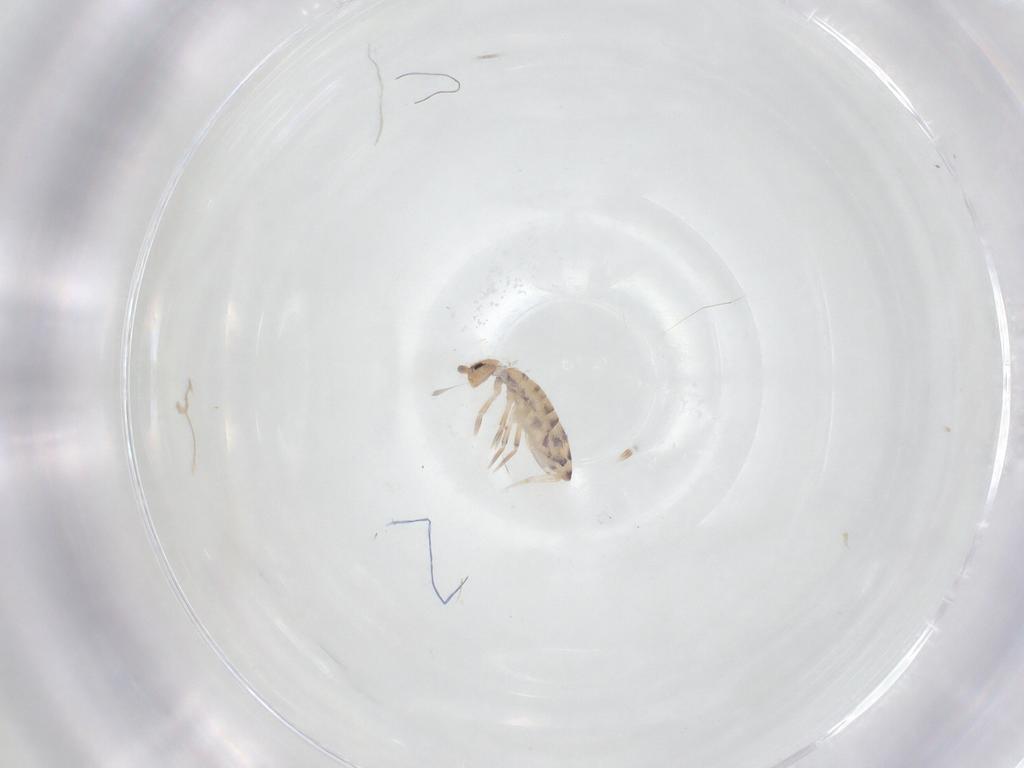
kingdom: Animalia
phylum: Arthropoda
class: Collembola
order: Entomobryomorpha
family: Entomobryidae
